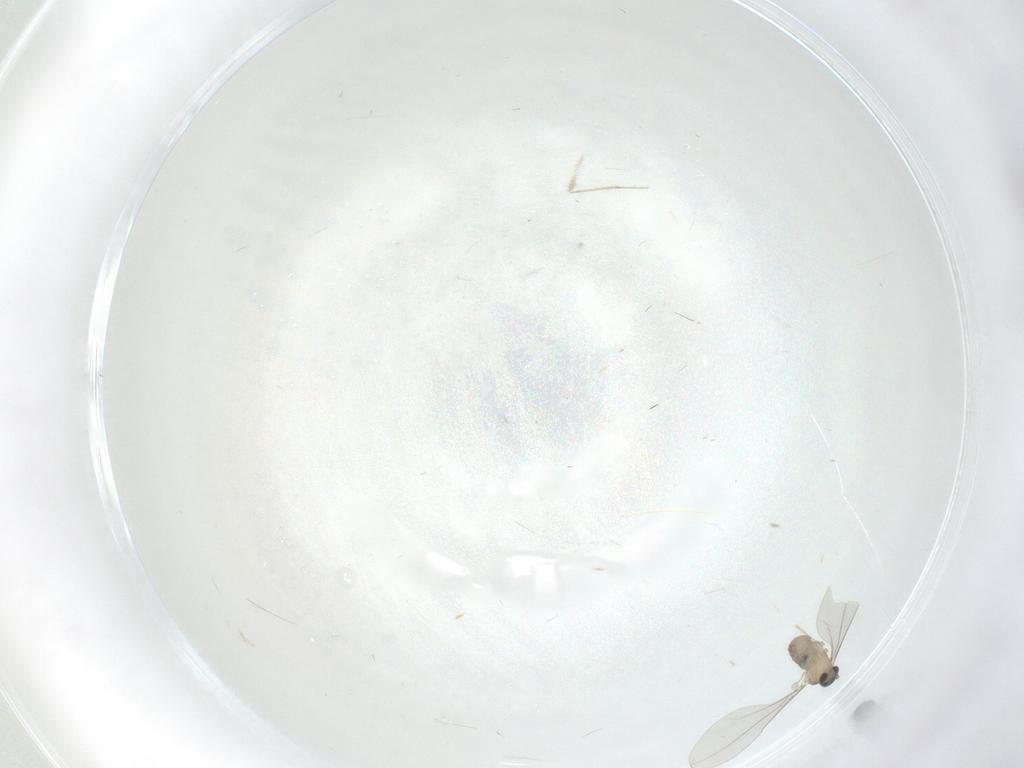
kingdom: Animalia
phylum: Arthropoda
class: Insecta
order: Diptera
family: Cecidomyiidae
